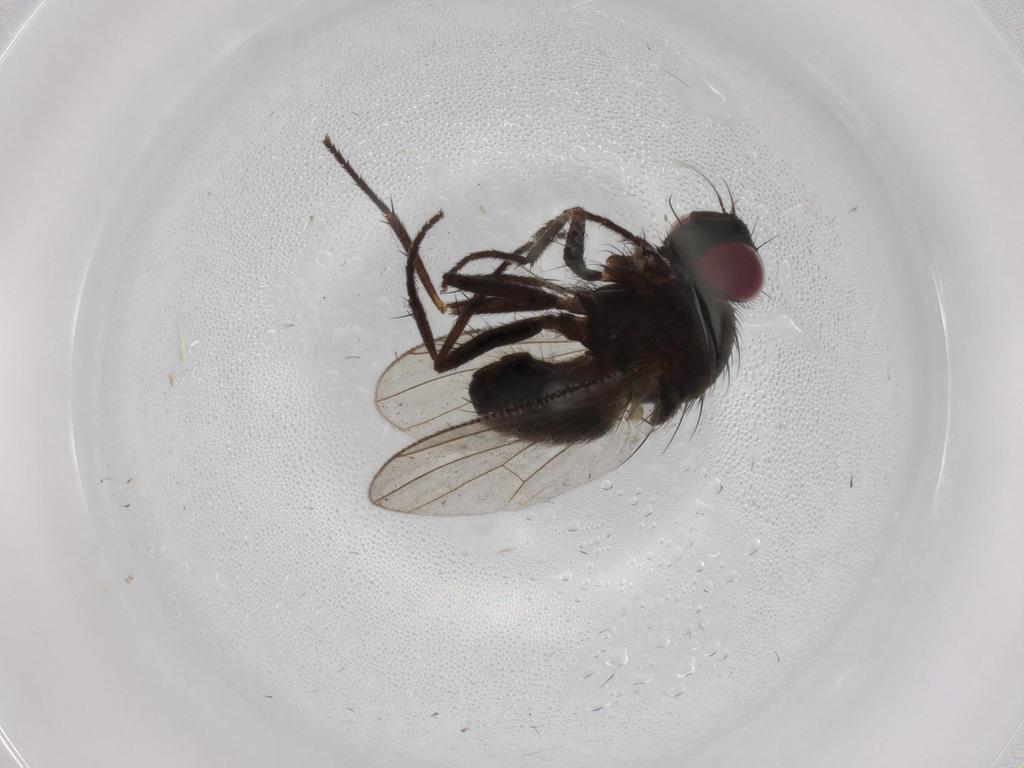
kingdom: Animalia
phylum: Arthropoda
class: Insecta
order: Diptera
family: Muscidae
